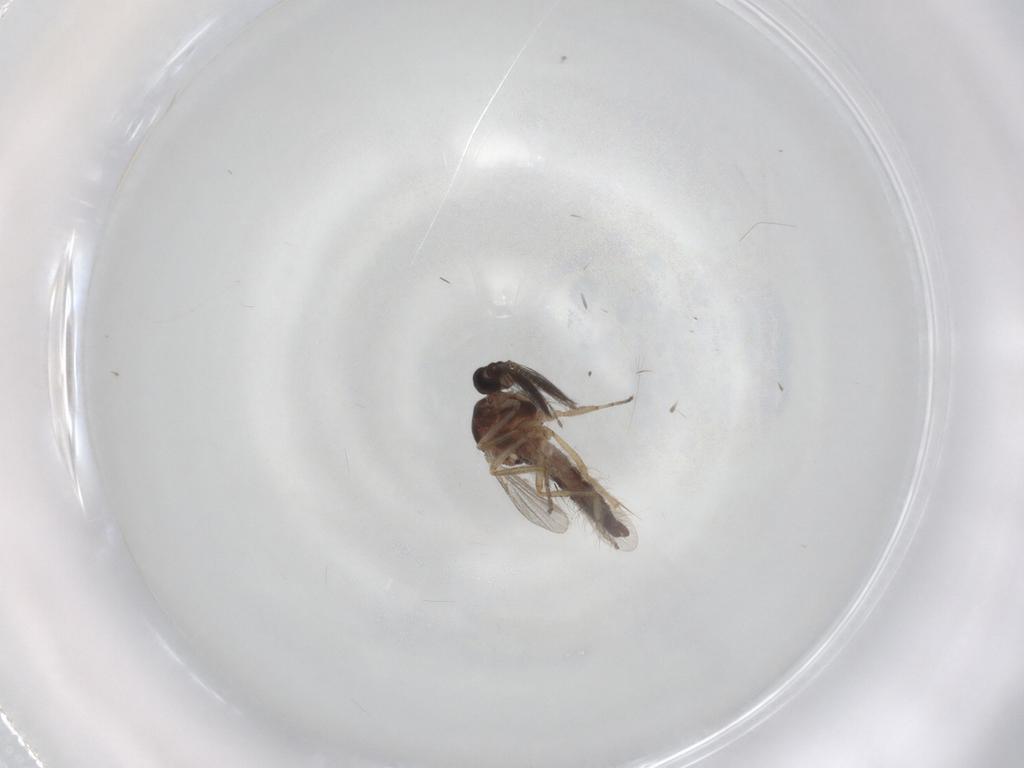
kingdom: Animalia
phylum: Arthropoda
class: Insecta
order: Diptera
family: Ceratopogonidae
